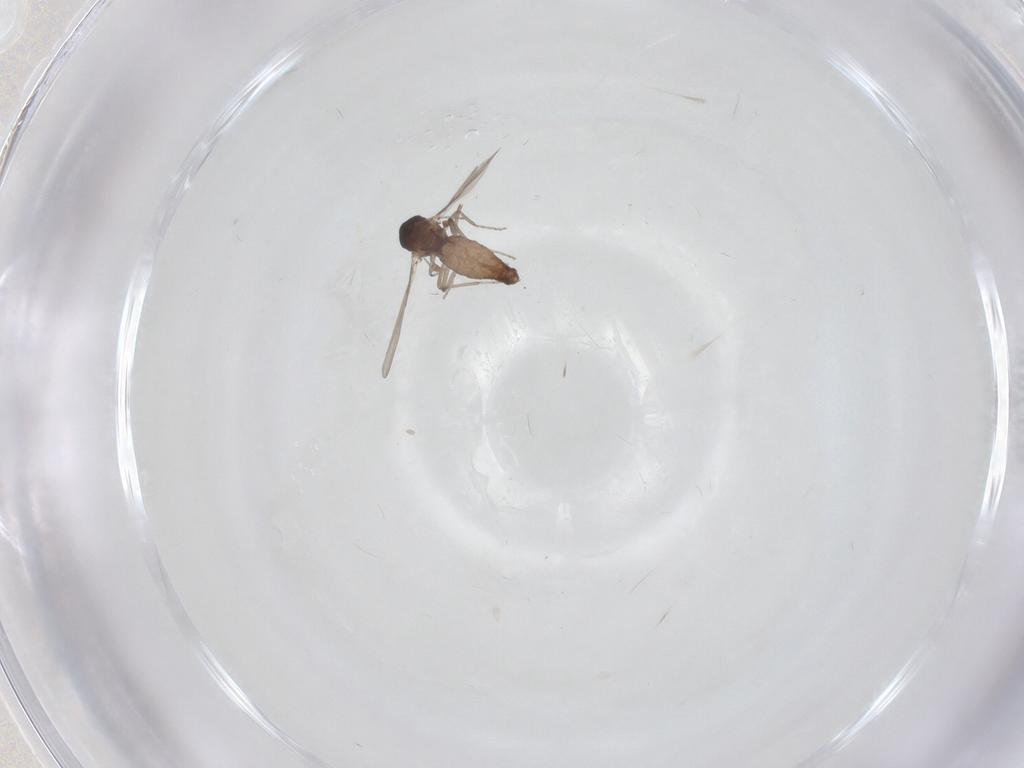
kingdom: Animalia
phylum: Arthropoda
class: Insecta
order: Diptera
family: Ceratopogonidae
